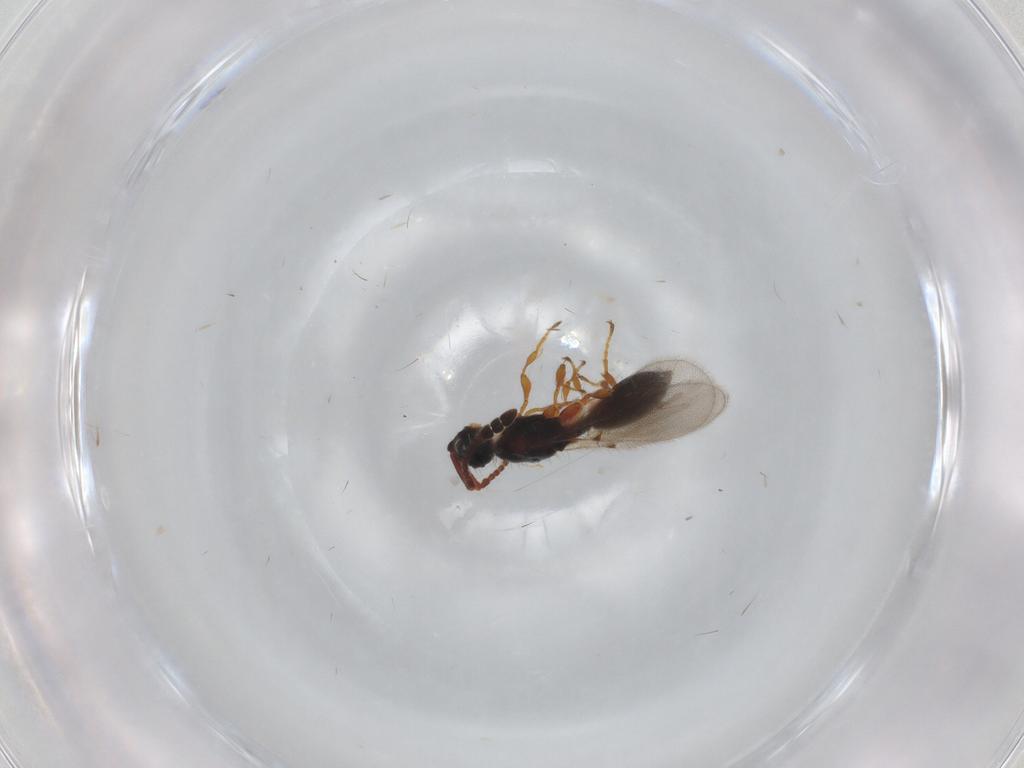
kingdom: Animalia
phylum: Arthropoda
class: Insecta
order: Hymenoptera
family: Diapriidae
